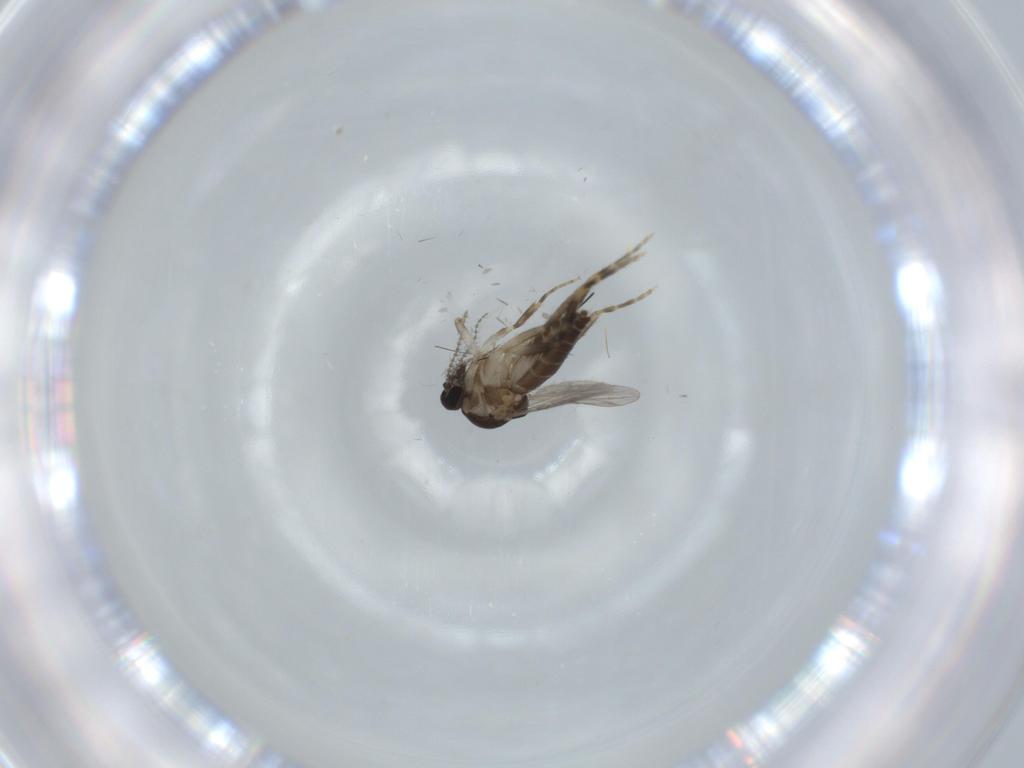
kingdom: Animalia
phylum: Arthropoda
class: Insecta
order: Diptera
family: Sciaridae
